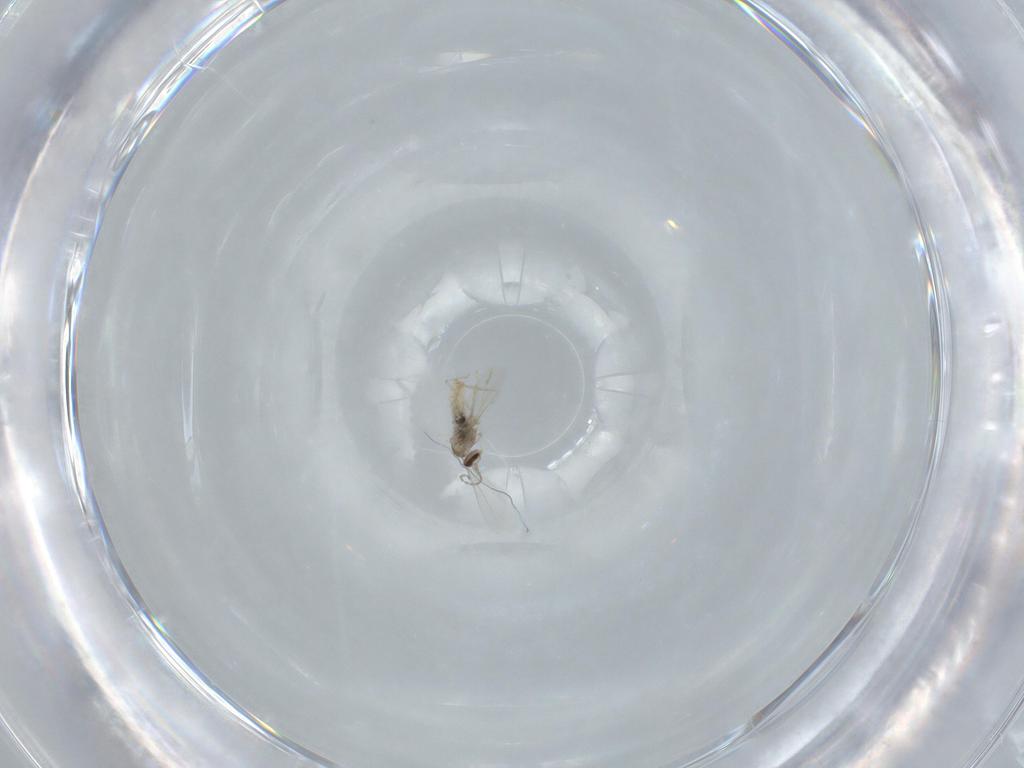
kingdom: Animalia
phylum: Arthropoda
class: Insecta
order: Diptera
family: Cecidomyiidae
